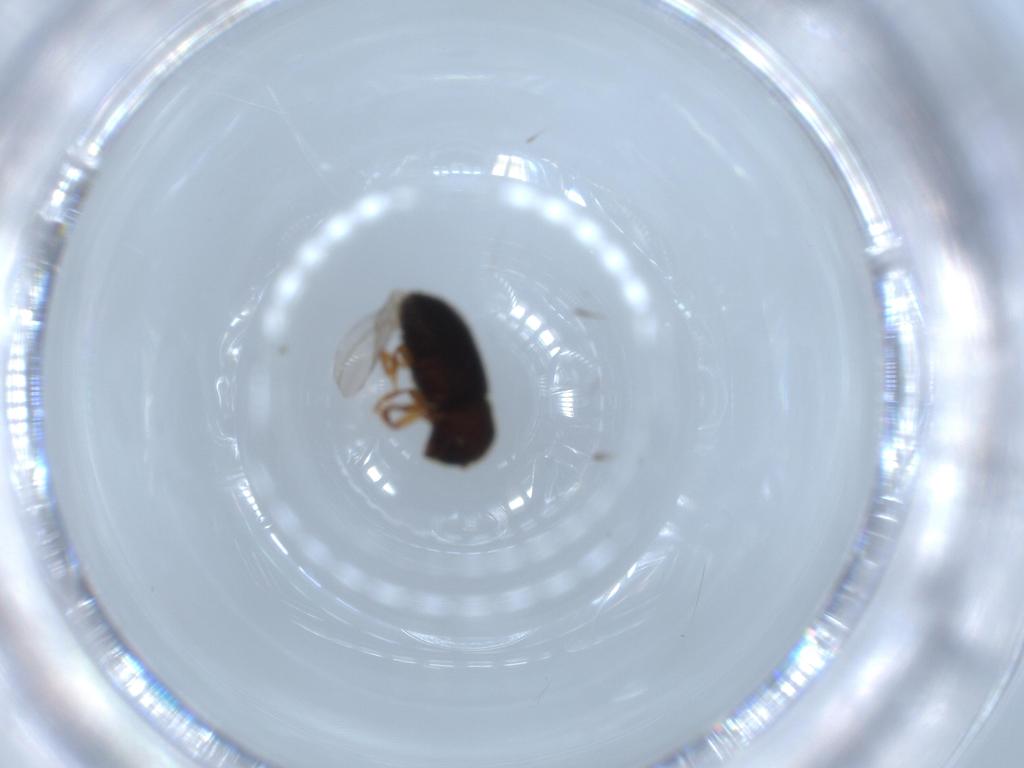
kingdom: Animalia
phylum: Arthropoda
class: Insecta
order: Coleoptera
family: Curculionidae
